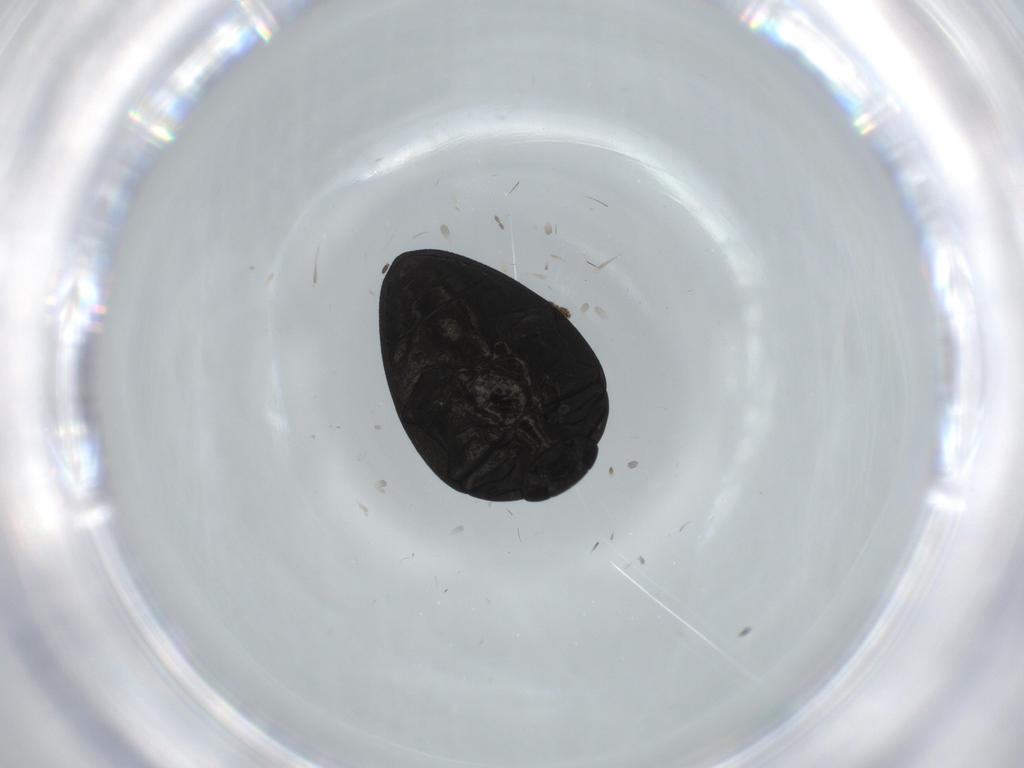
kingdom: Animalia
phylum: Arthropoda
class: Insecta
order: Coleoptera
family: Buprestidae
